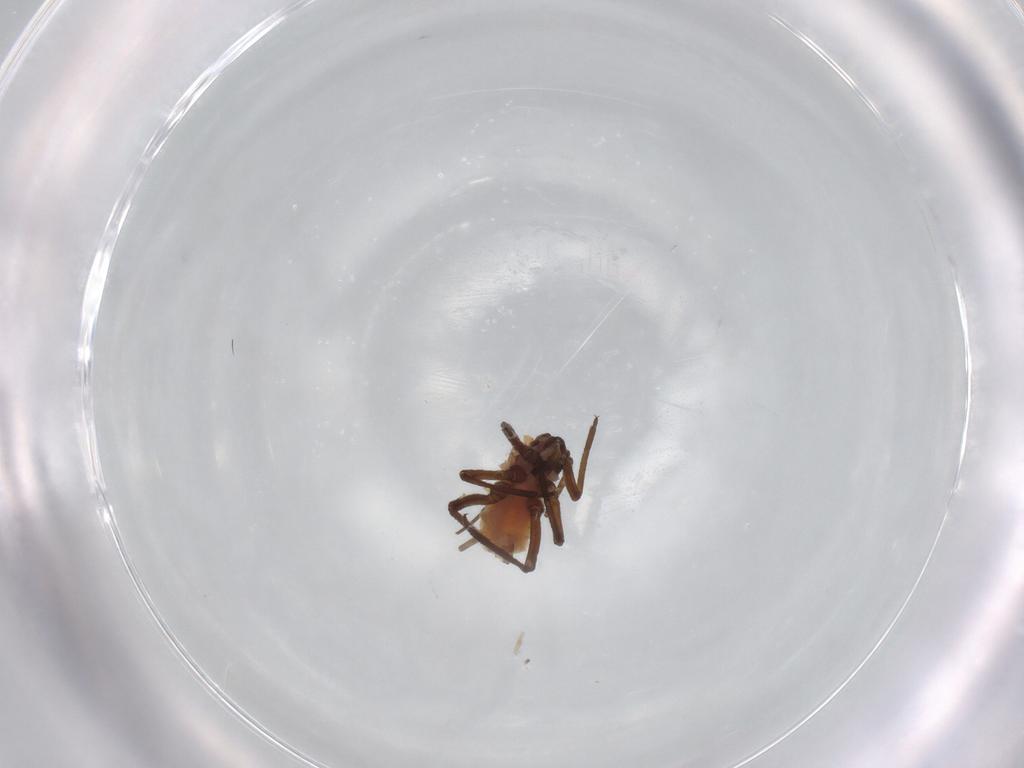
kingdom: Animalia
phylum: Arthropoda
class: Insecta
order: Hemiptera
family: Aphididae
